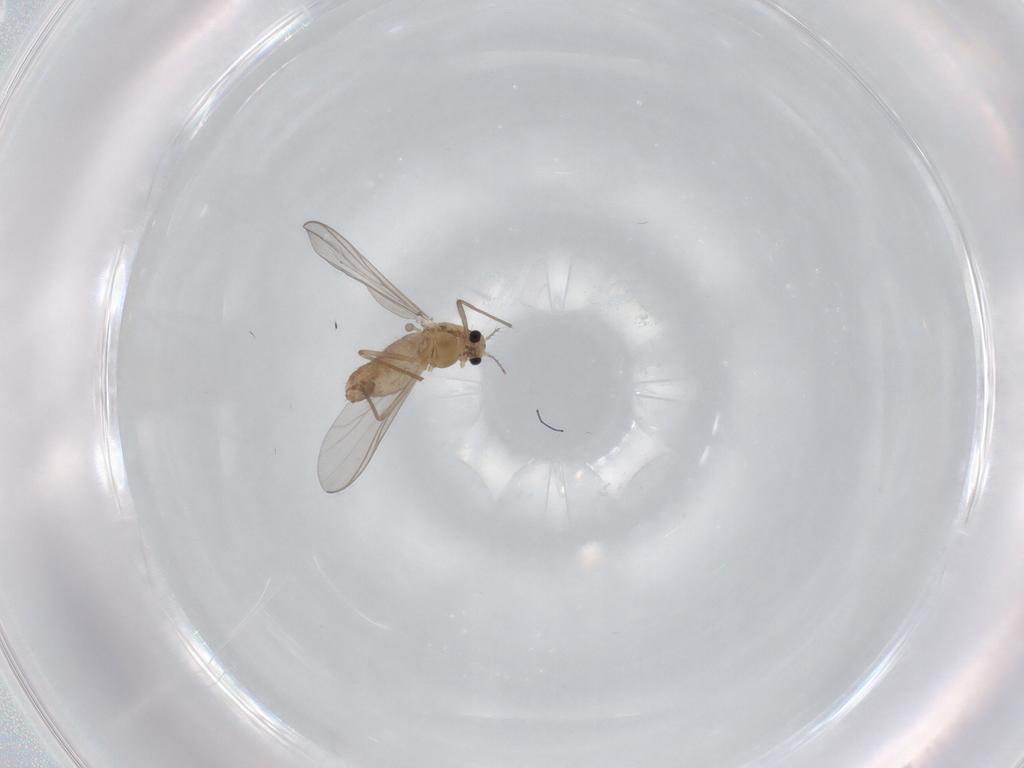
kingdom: Animalia
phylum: Arthropoda
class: Insecta
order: Diptera
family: Chironomidae
